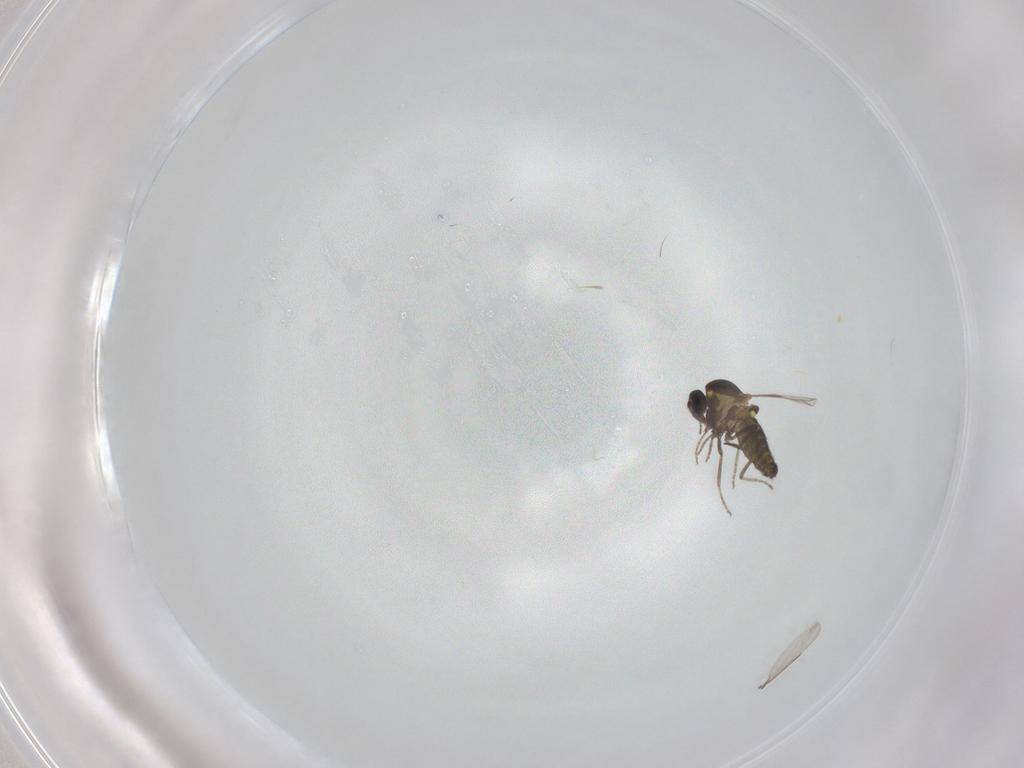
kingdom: Animalia
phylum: Arthropoda
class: Insecta
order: Diptera
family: Ceratopogonidae
